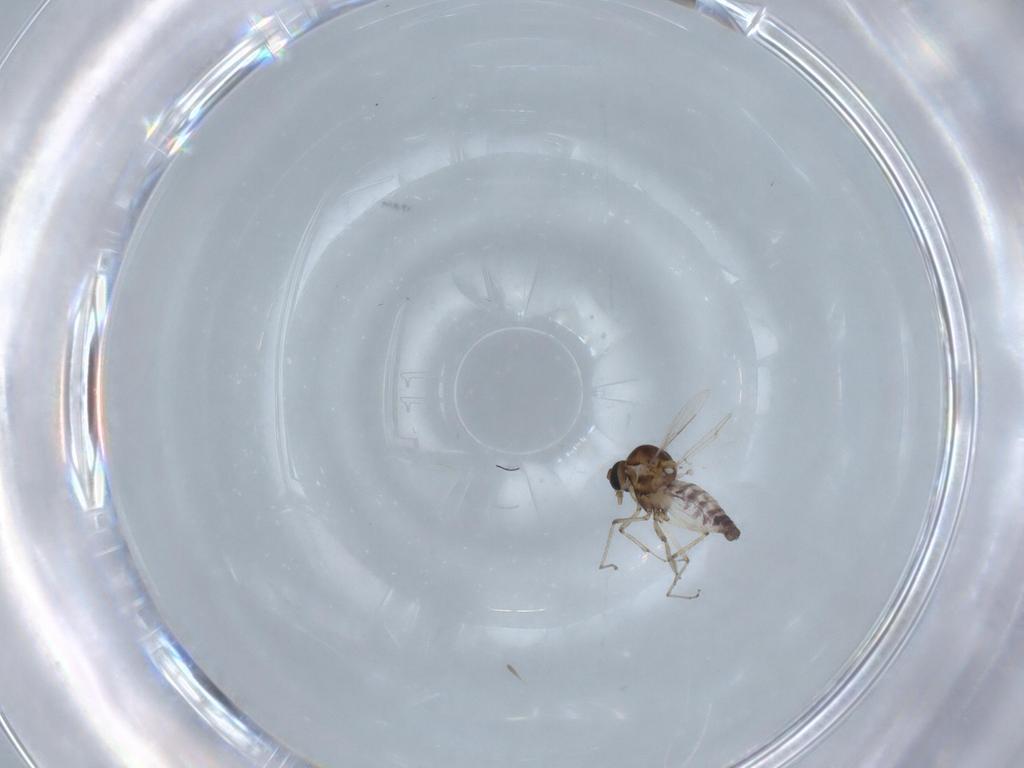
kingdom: Animalia
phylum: Arthropoda
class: Insecta
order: Diptera
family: Ceratopogonidae
